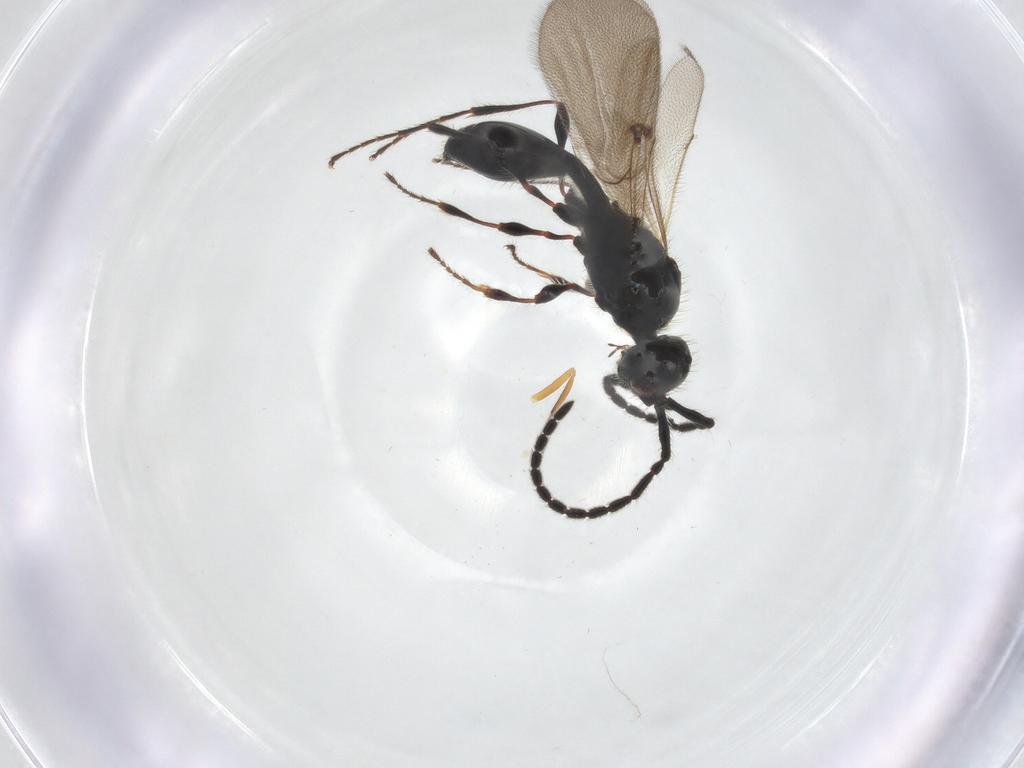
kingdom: Animalia
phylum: Arthropoda
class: Insecta
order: Hymenoptera
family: Diapriidae
